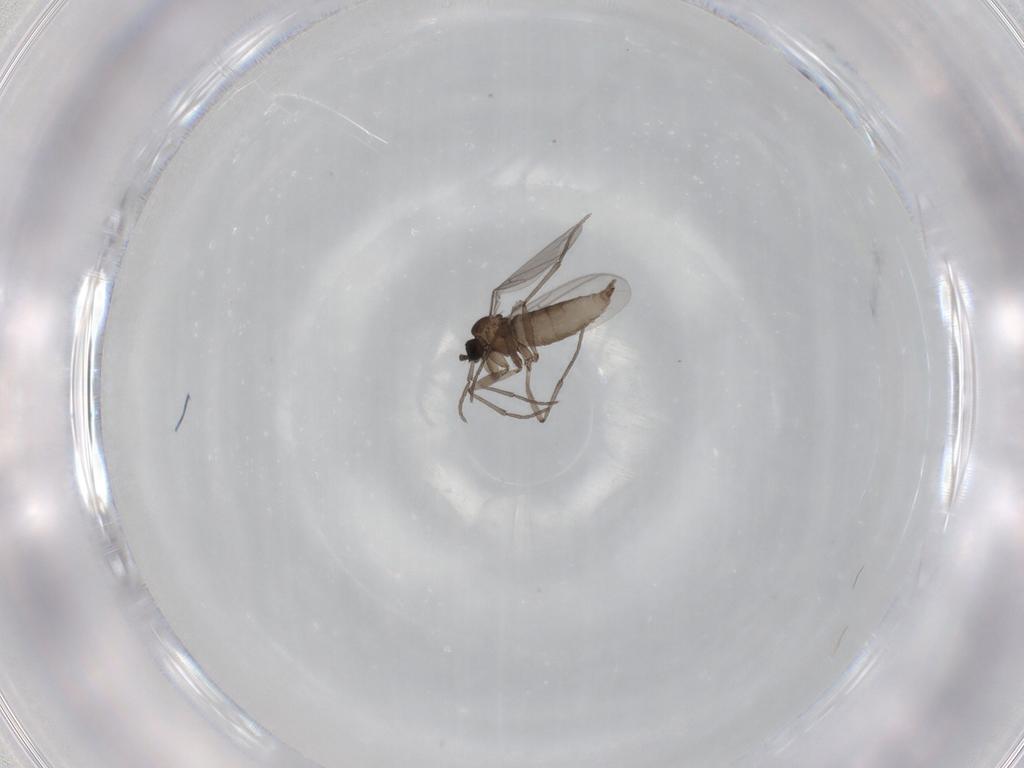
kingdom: Animalia
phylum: Arthropoda
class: Insecta
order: Diptera
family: Sciaridae
